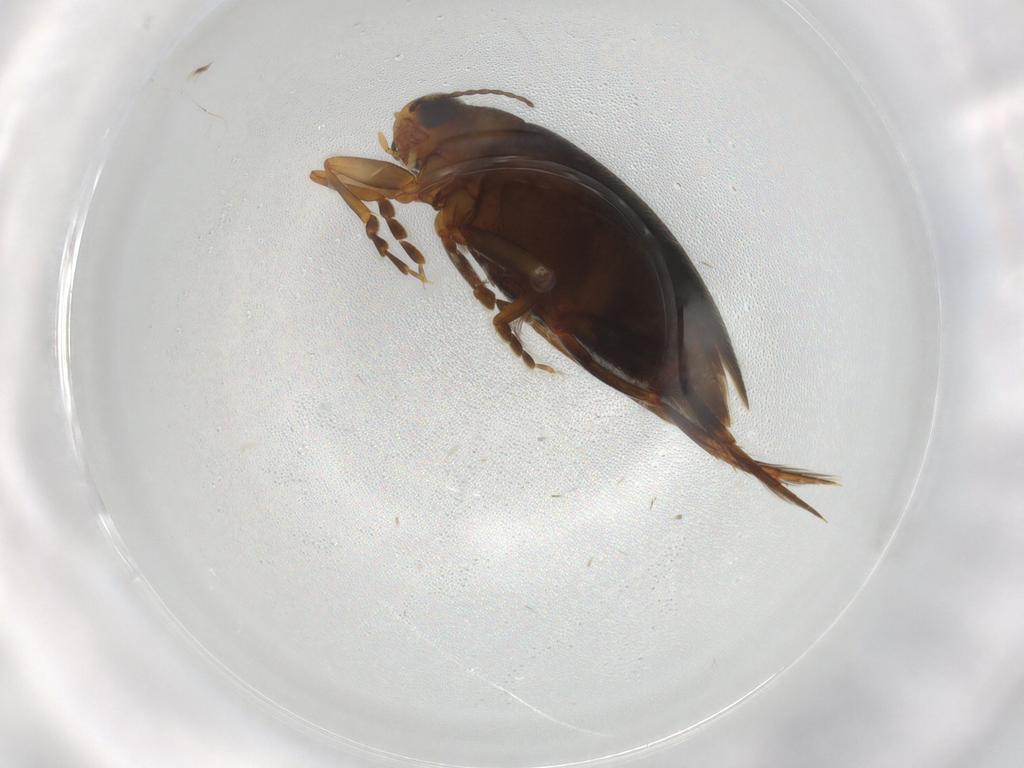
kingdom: Animalia
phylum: Arthropoda
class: Insecta
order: Coleoptera
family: Dytiscidae
